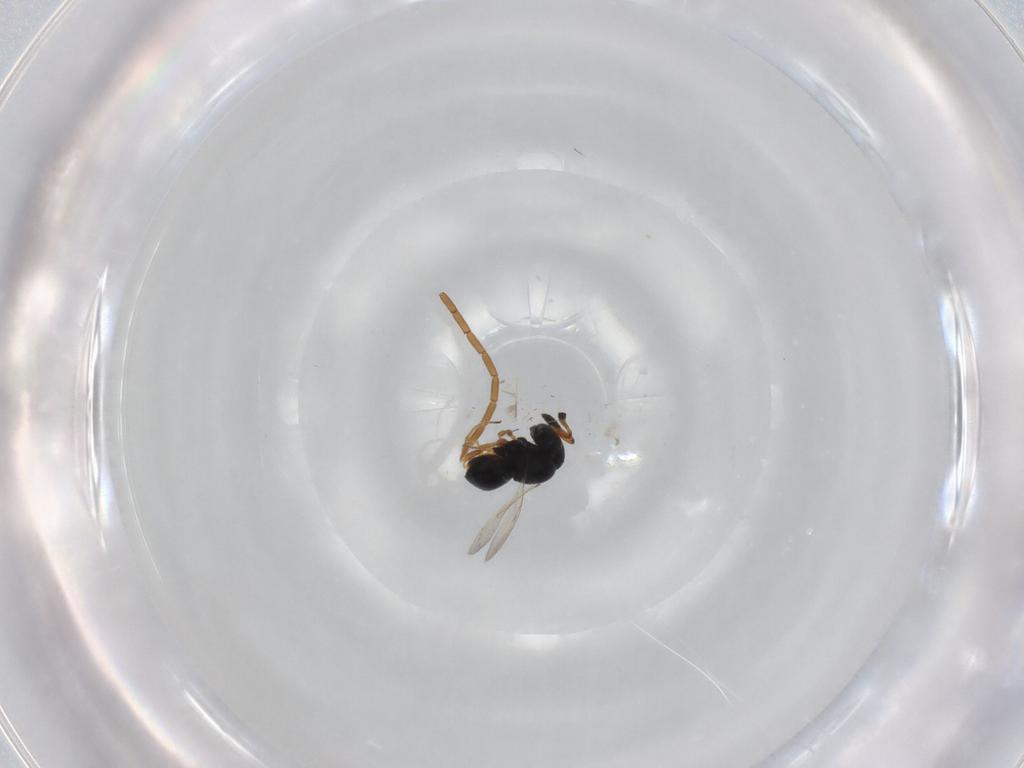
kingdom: Animalia
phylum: Arthropoda
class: Insecta
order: Hymenoptera
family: Scelionidae
